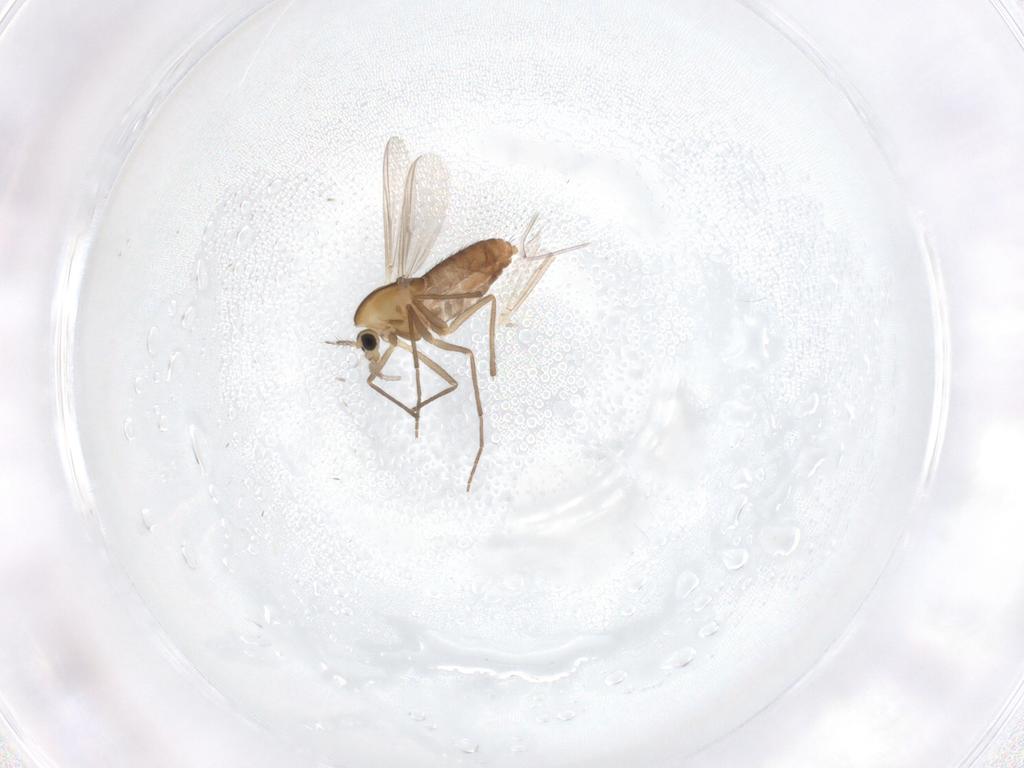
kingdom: Animalia
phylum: Arthropoda
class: Insecta
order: Diptera
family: Chironomidae
